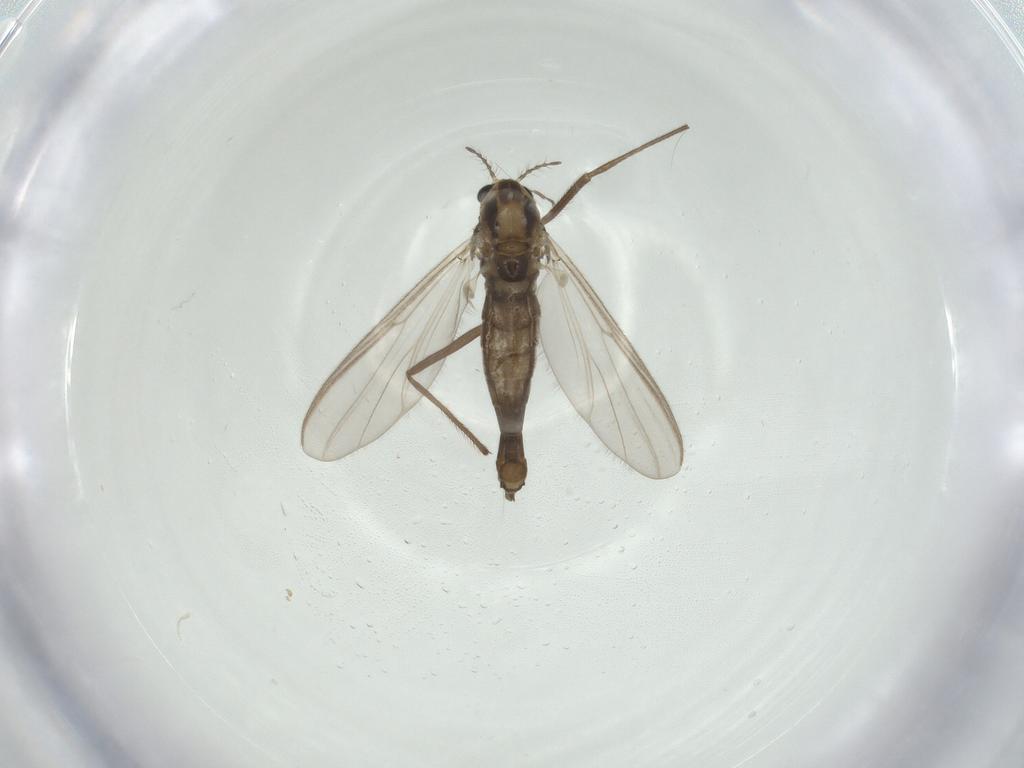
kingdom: Animalia
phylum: Arthropoda
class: Insecta
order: Diptera
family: Chironomidae
